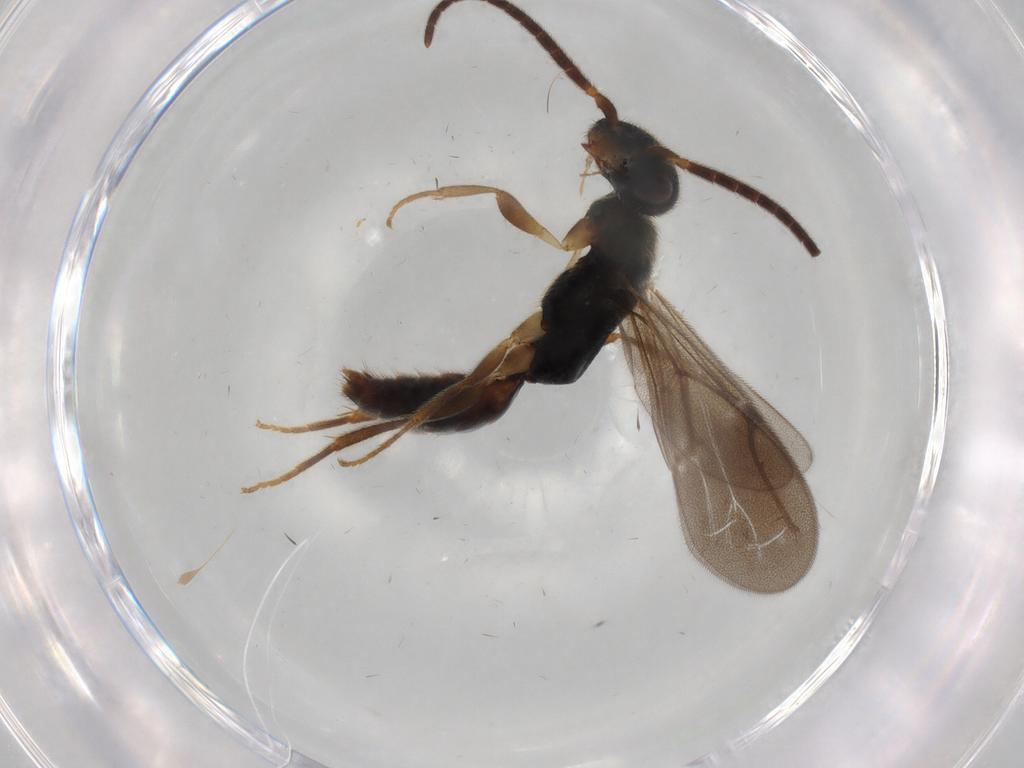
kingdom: Animalia
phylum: Arthropoda
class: Insecta
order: Hymenoptera
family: Bethylidae
